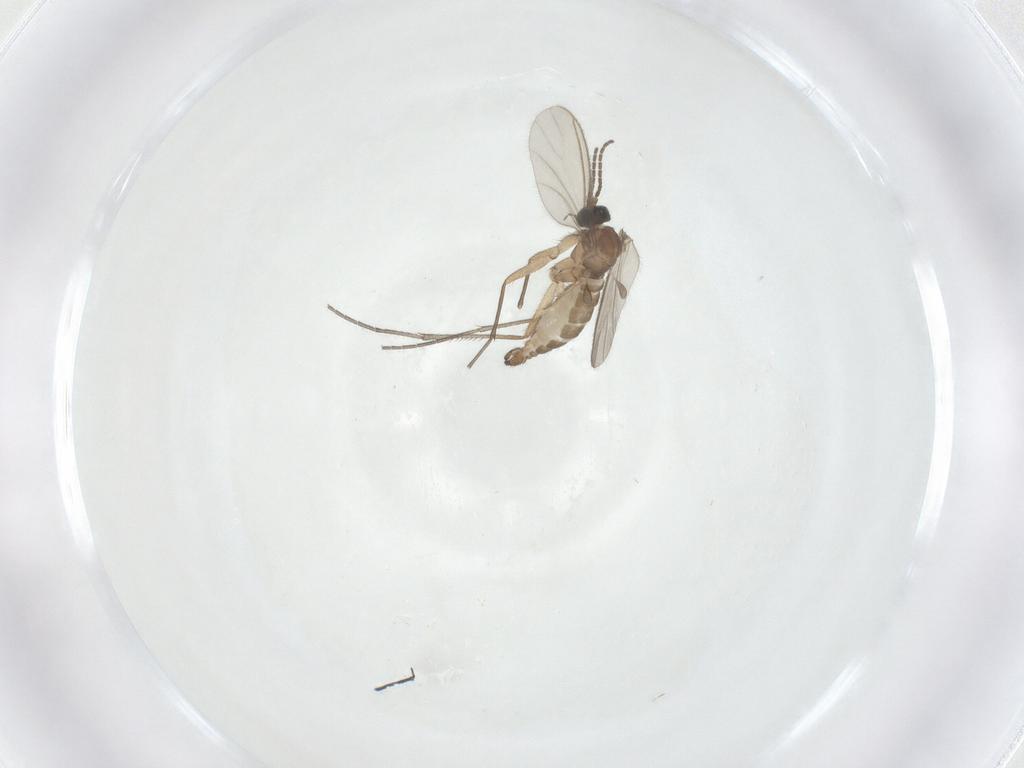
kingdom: Animalia
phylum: Arthropoda
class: Insecta
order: Diptera
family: Sciaridae
